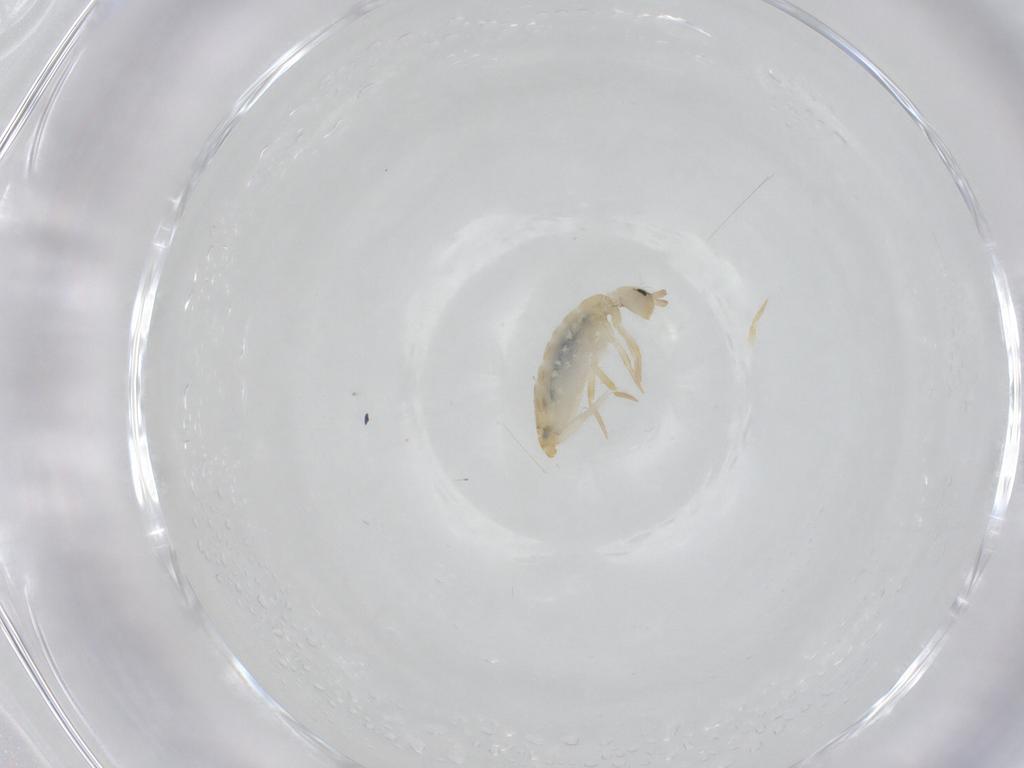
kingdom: Animalia
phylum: Arthropoda
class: Collembola
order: Entomobryomorpha
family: Entomobryidae
